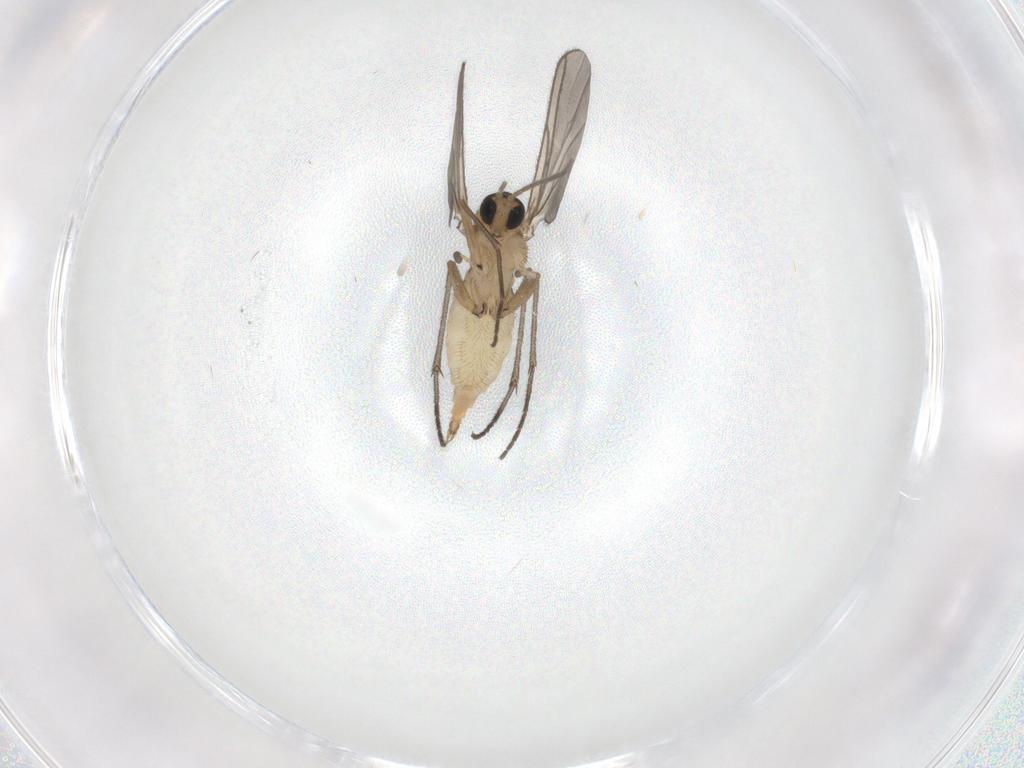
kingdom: Animalia
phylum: Arthropoda
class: Insecta
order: Diptera
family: Sciaridae
